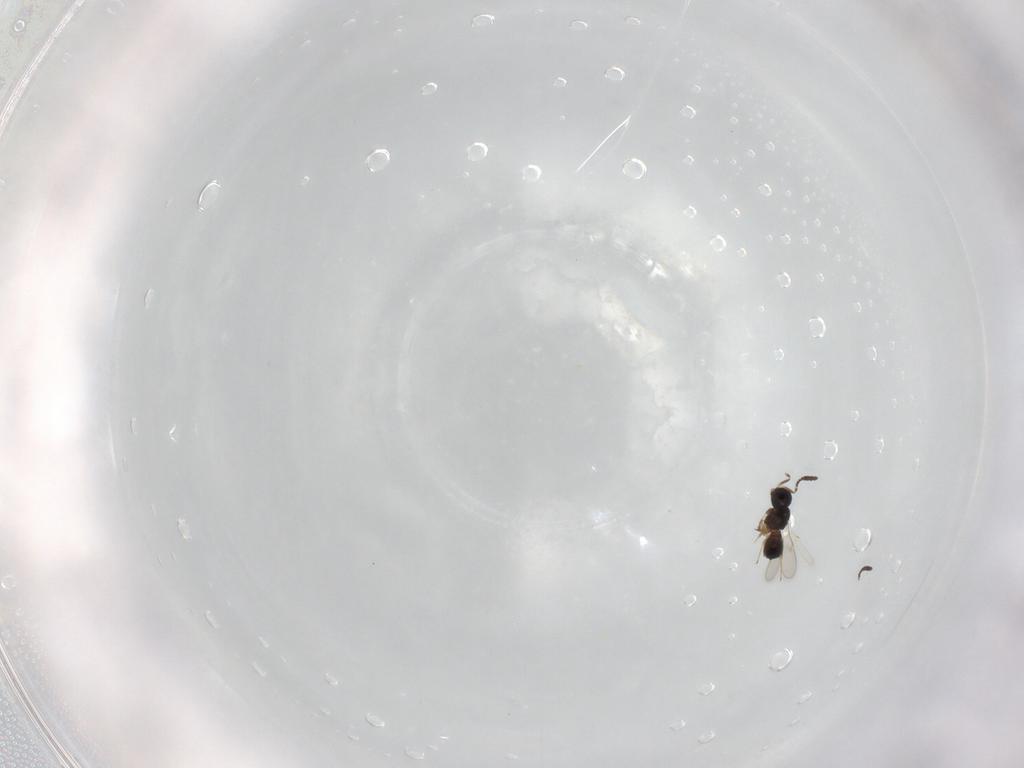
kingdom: Animalia
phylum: Arthropoda
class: Insecta
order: Hymenoptera
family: Scelionidae
